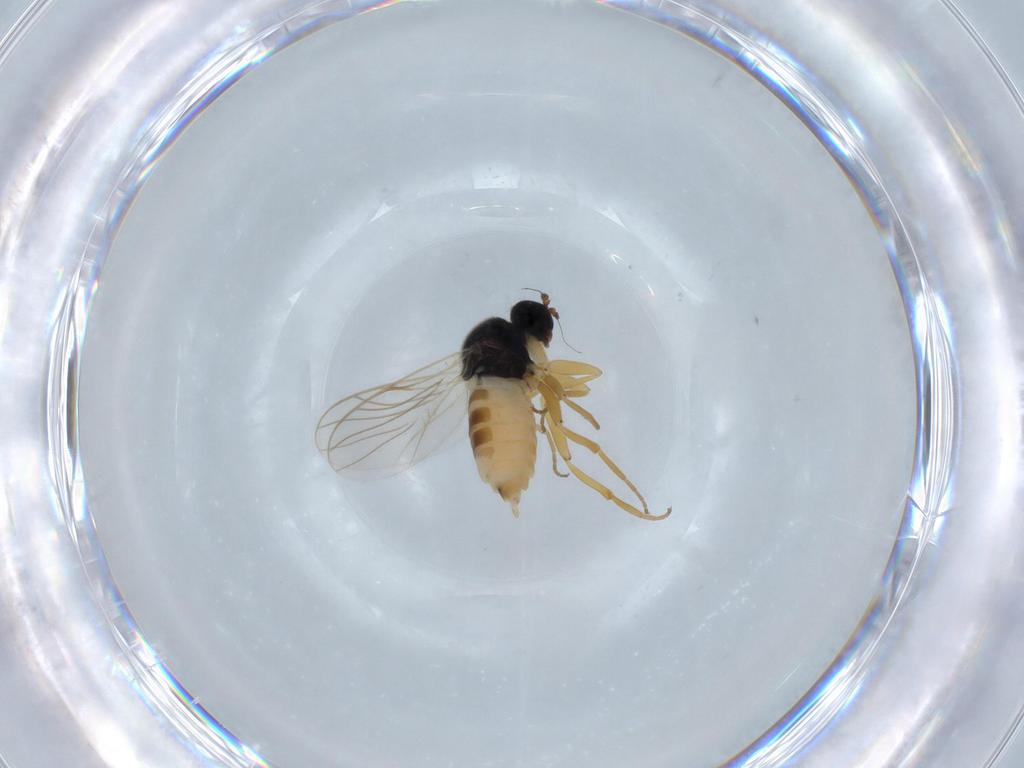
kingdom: Animalia
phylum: Arthropoda
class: Insecta
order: Diptera
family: Hybotidae
